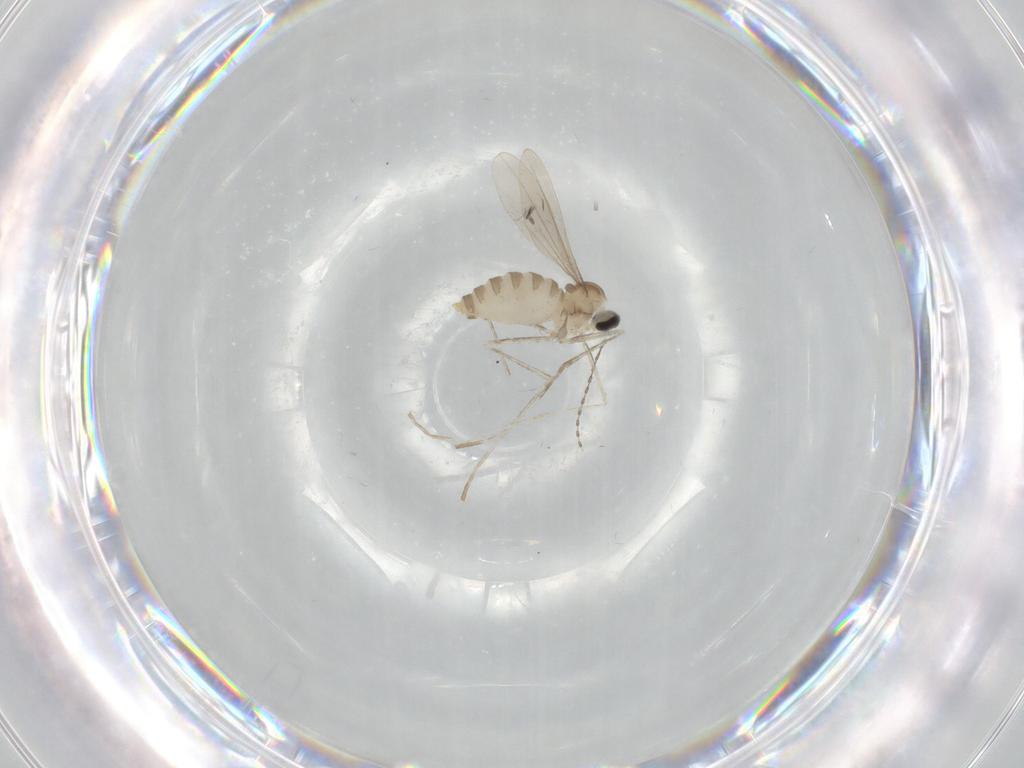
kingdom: Animalia
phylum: Arthropoda
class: Insecta
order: Diptera
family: Cecidomyiidae
